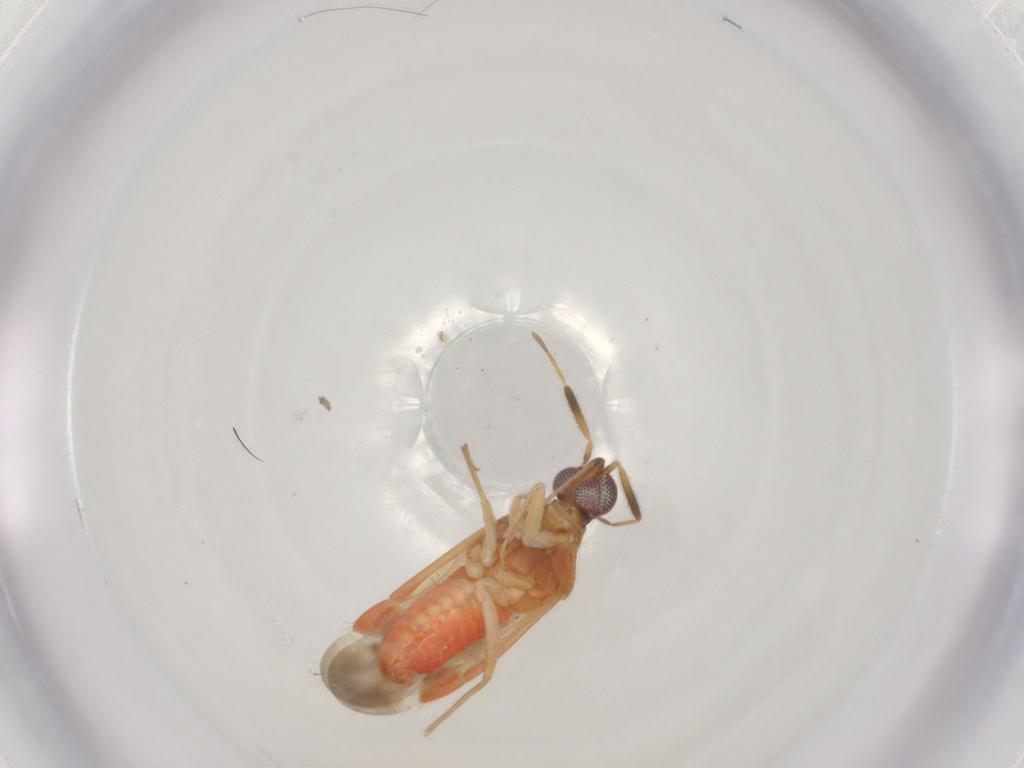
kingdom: Animalia
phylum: Arthropoda
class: Insecta
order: Hemiptera
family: Miridae
